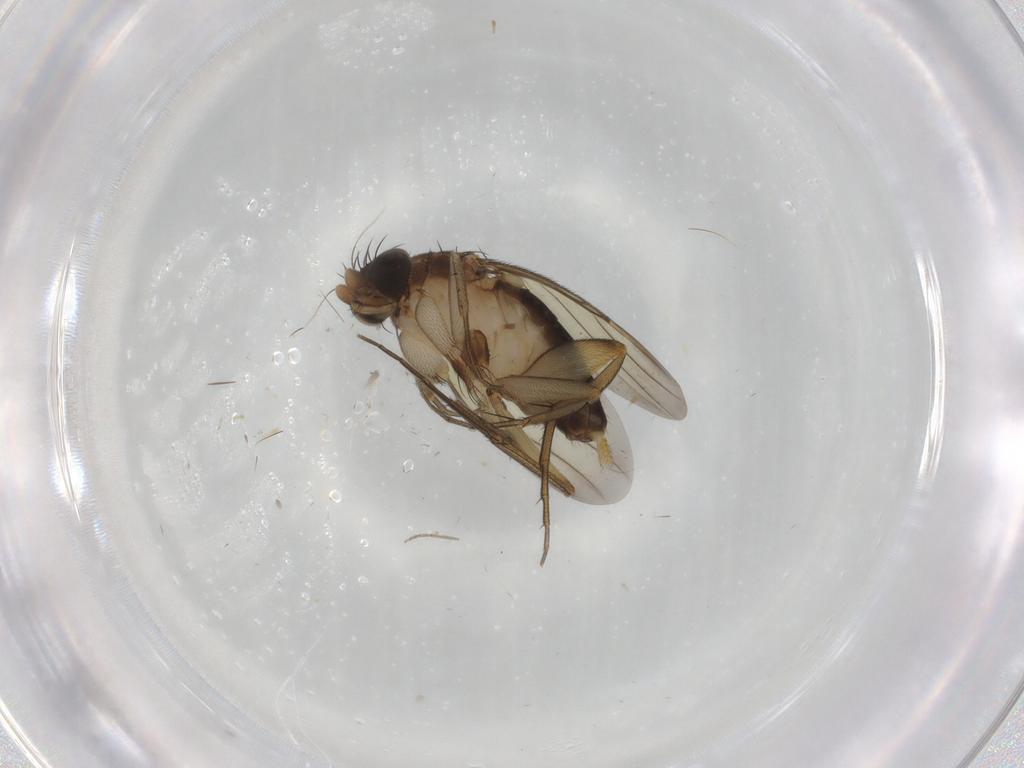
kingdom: Animalia
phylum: Arthropoda
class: Insecta
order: Diptera
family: Phoridae
